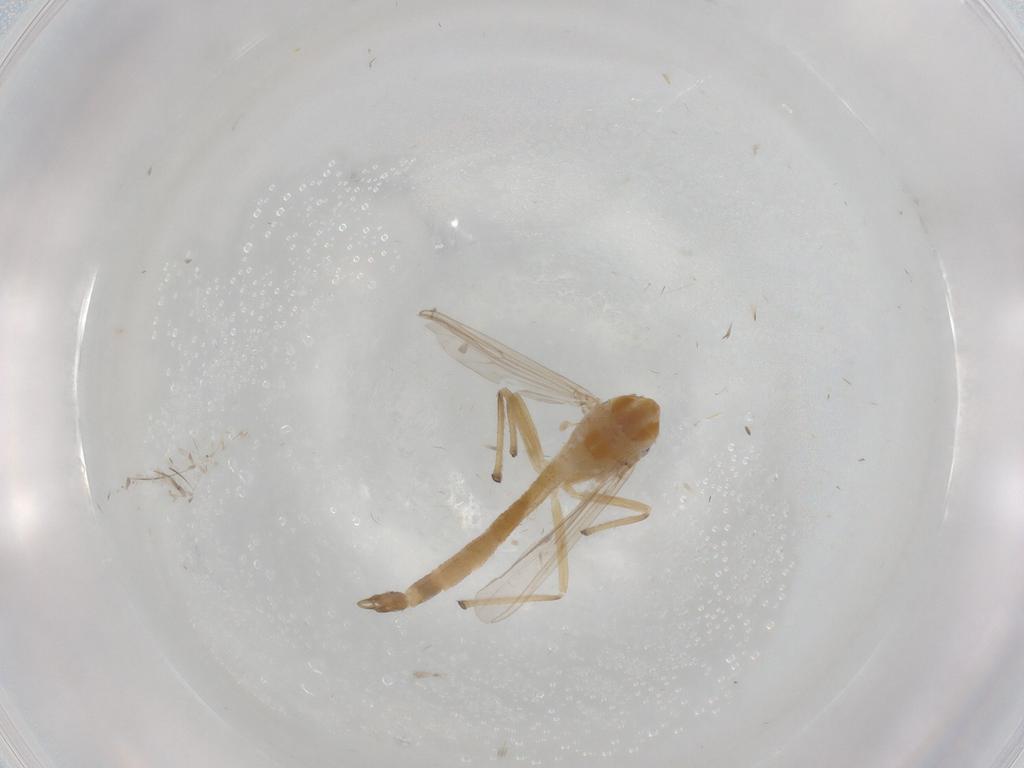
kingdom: Animalia
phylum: Arthropoda
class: Insecta
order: Diptera
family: Chironomidae
